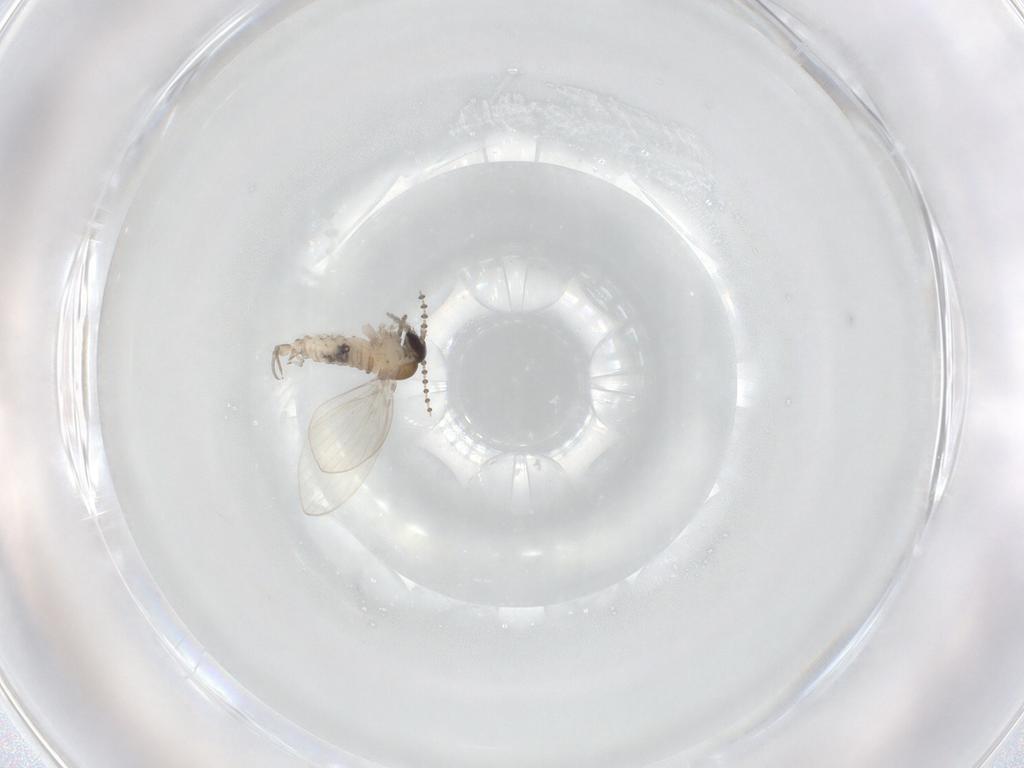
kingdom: Animalia
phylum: Arthropoda
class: Insecta
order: Diptera
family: Psychodidae
